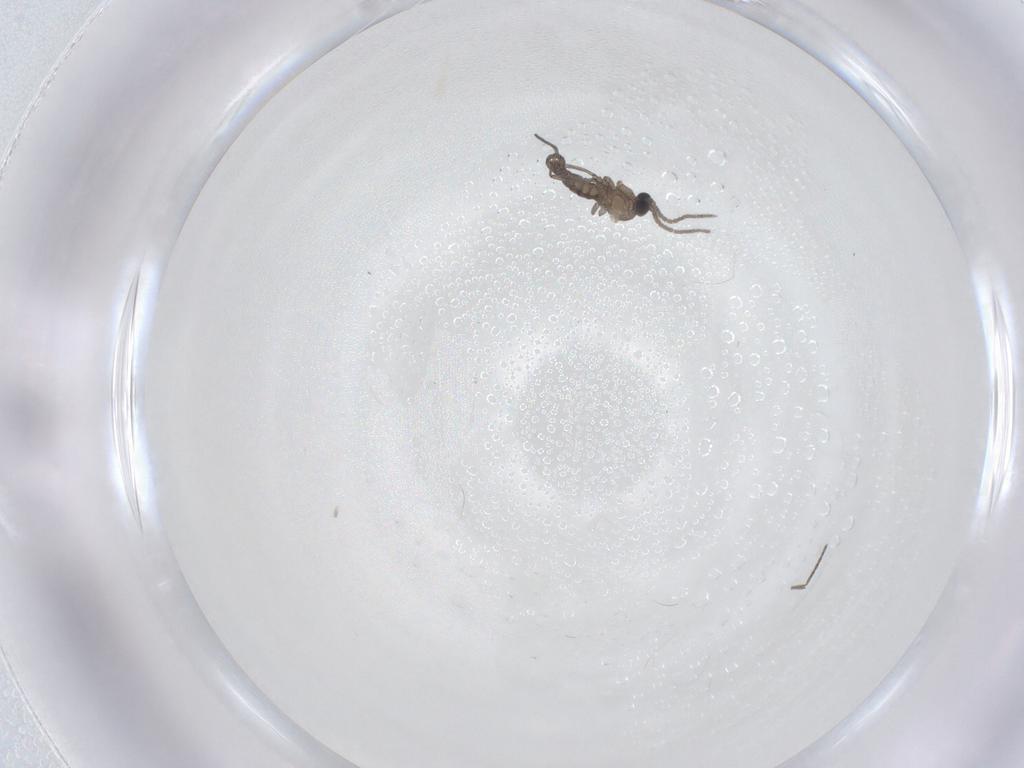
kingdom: Animalia
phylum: Arthropoda
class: Insecta
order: Diptera
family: Sciaridae
